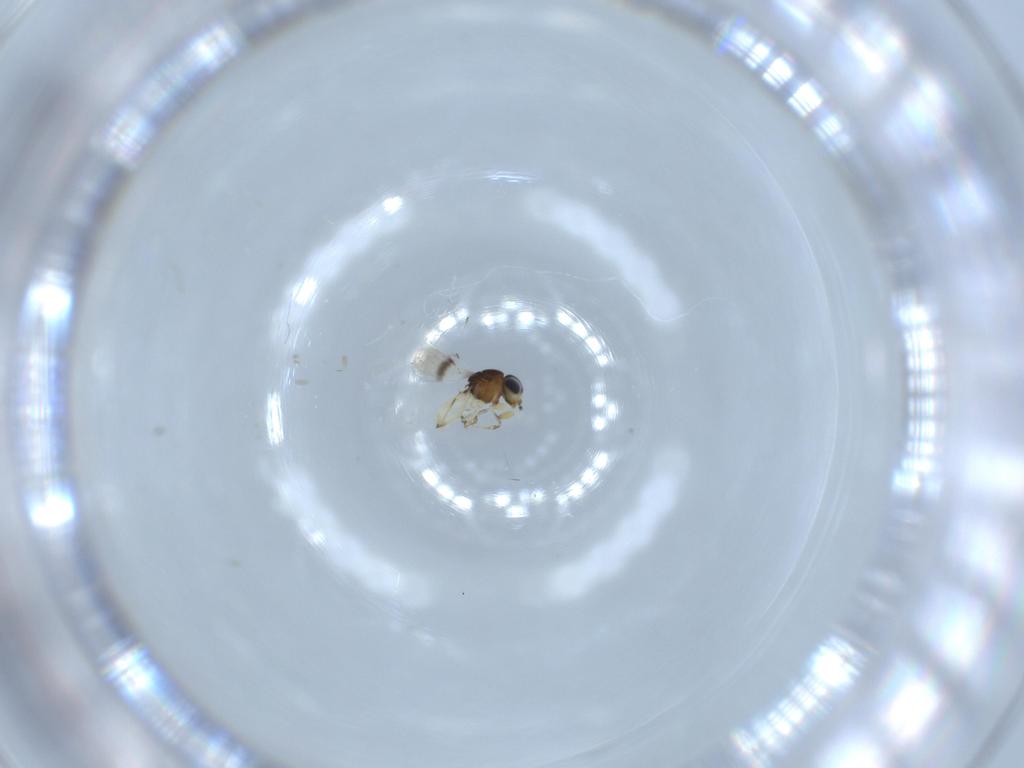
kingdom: Animalia
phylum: Arthropoda
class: Insecta
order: Hymenoptera
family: Scelionidae
